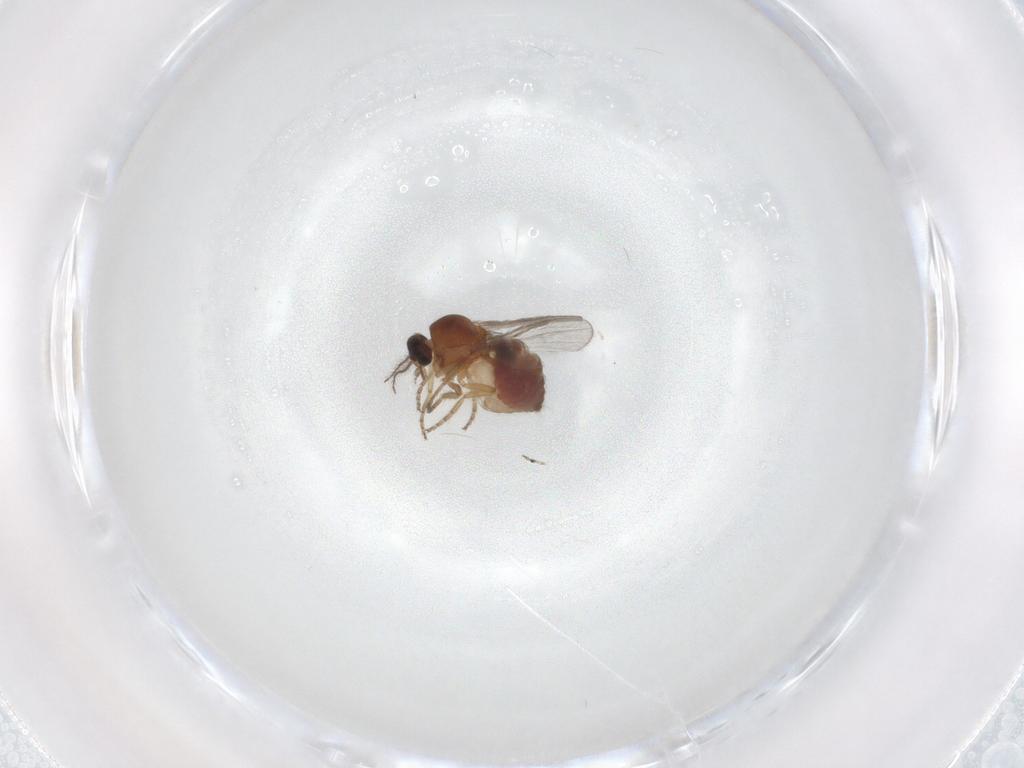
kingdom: Animalia
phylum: Arthropoda
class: Insecta
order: Diptera
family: Ceratopogonidae
